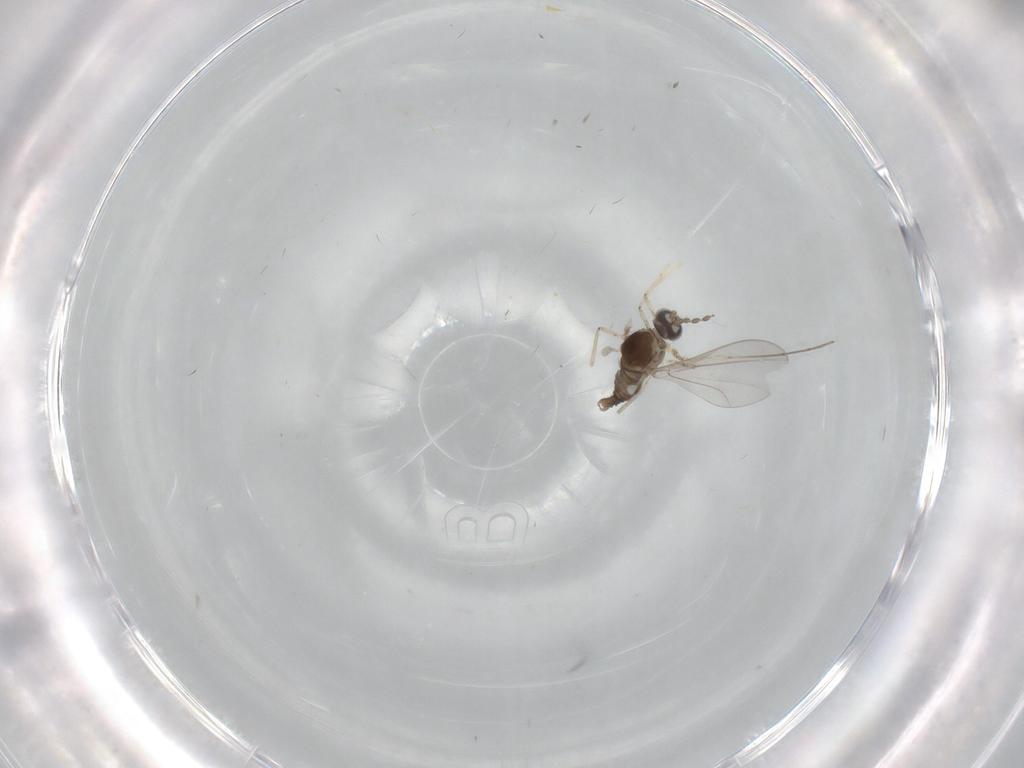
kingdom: Animalia
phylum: Arthropoda
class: Insecta
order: Diptera
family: Cecidomyiidae
